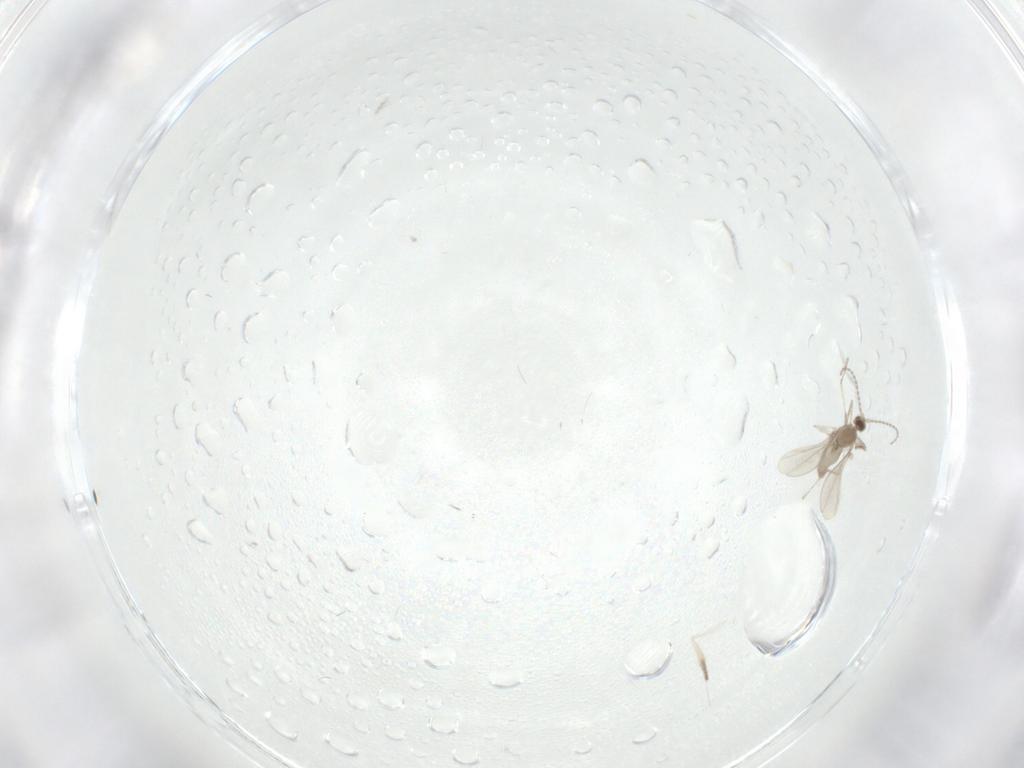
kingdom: Animalia
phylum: Arthropoda
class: Insecta
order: Diptera
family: Cecidomyiidae
